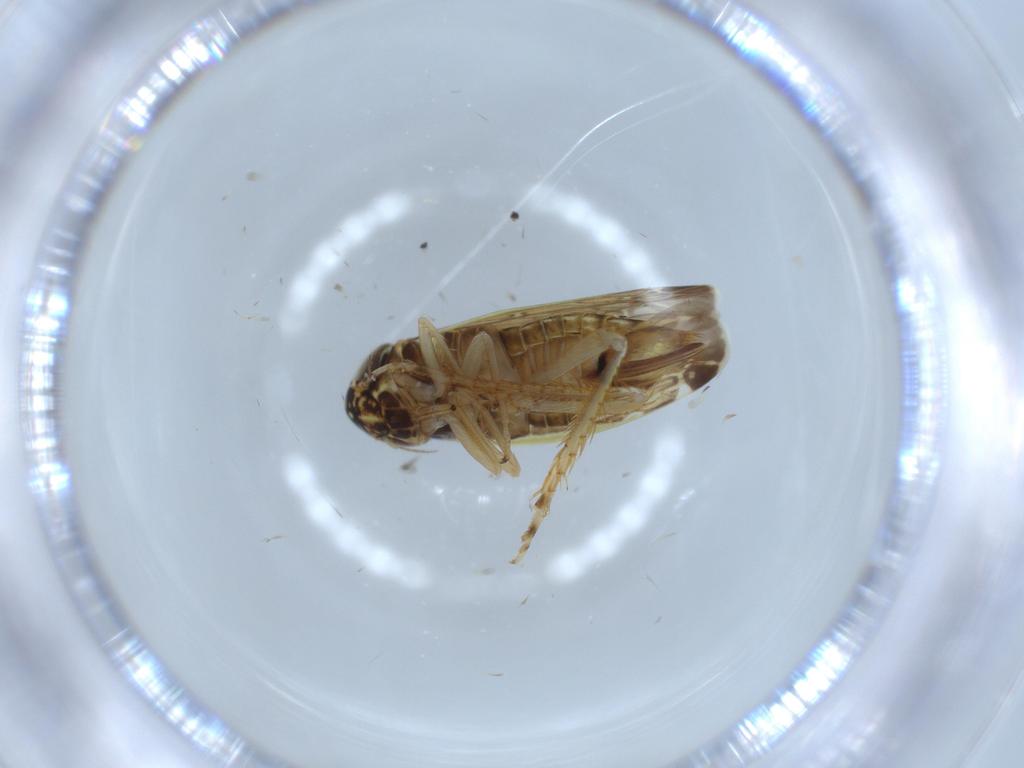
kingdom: Animalia
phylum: Arthropoda
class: Insecta
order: Hemiptera
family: Cicadellidae
